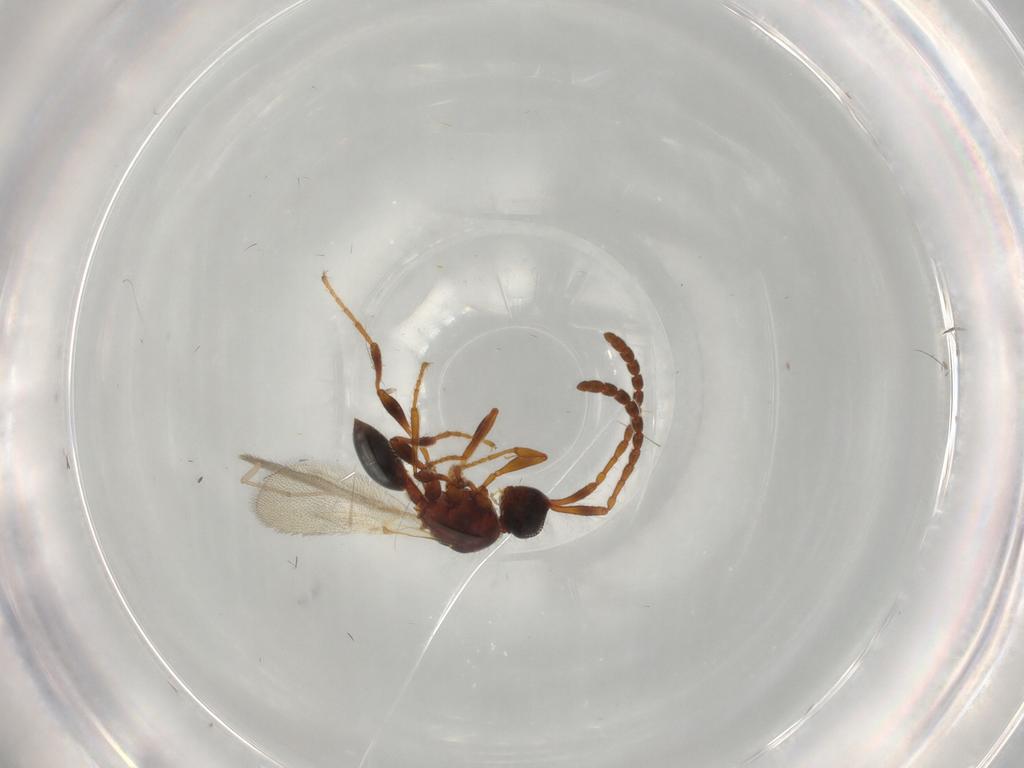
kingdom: Animalia
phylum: Arthropoda
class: Insecta
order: Hymenoptera
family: Diapriidae
